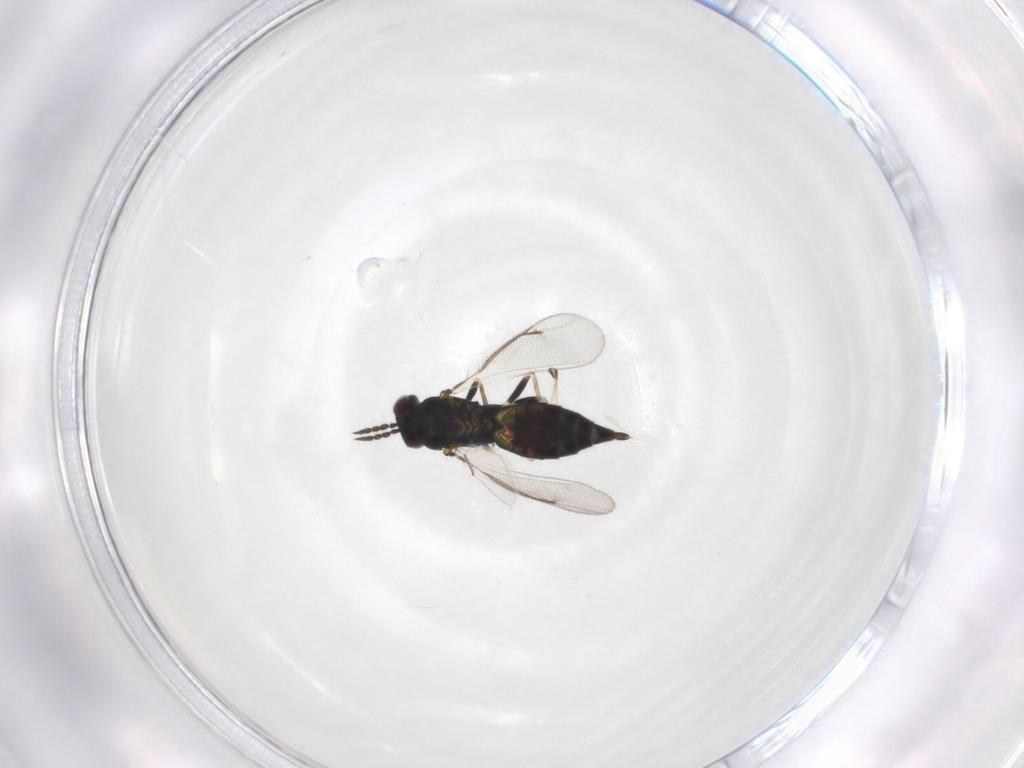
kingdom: Animalia
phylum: Arthropoda
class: Insecta
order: Hymenoptera
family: Eulophidae
